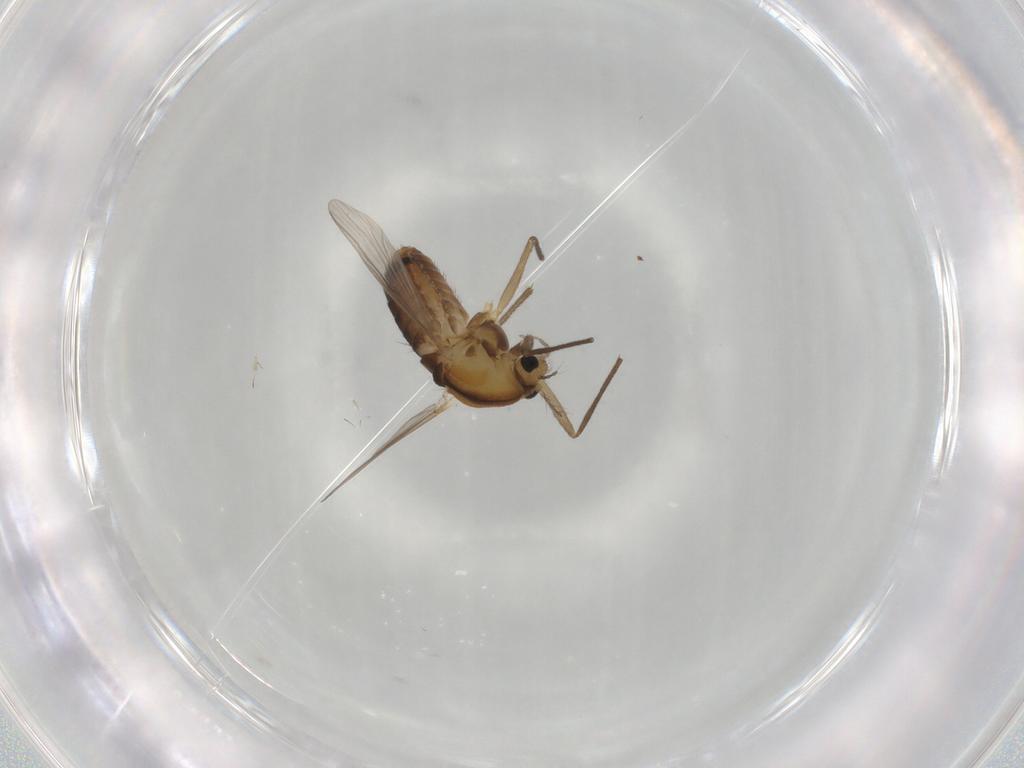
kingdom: Animalia
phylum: Arthropoda
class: Insecta
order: Diptera
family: Chironomidae
